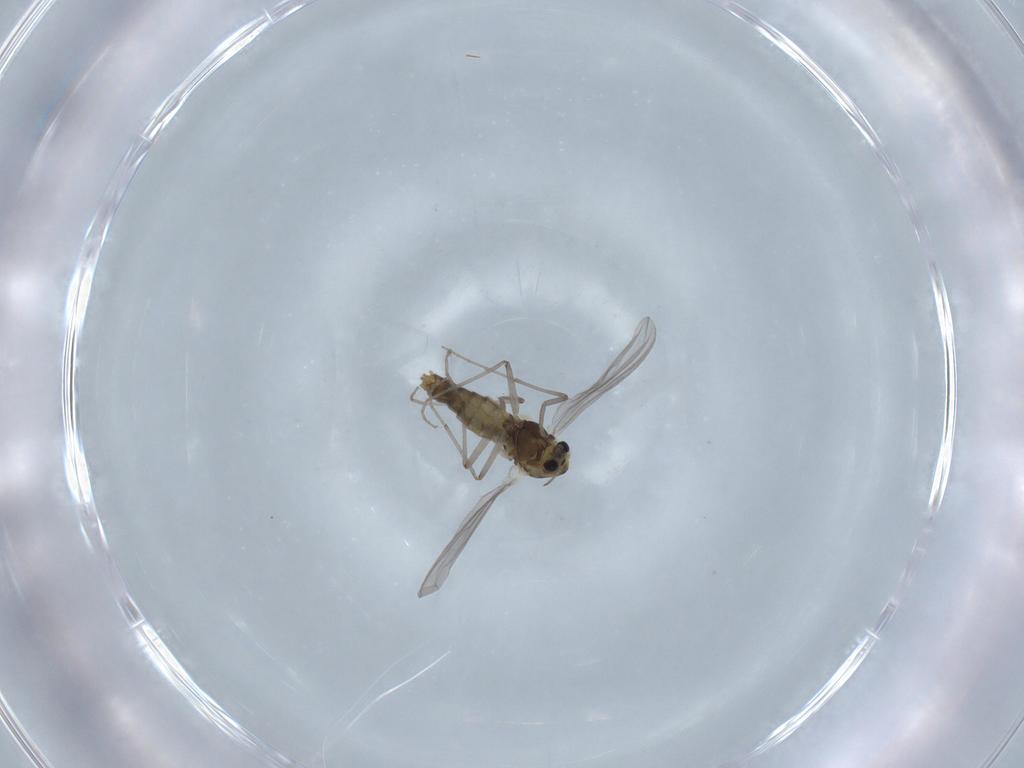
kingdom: Animalia
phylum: Arthropoda
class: Insecta
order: Diptera
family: Chironomidae
